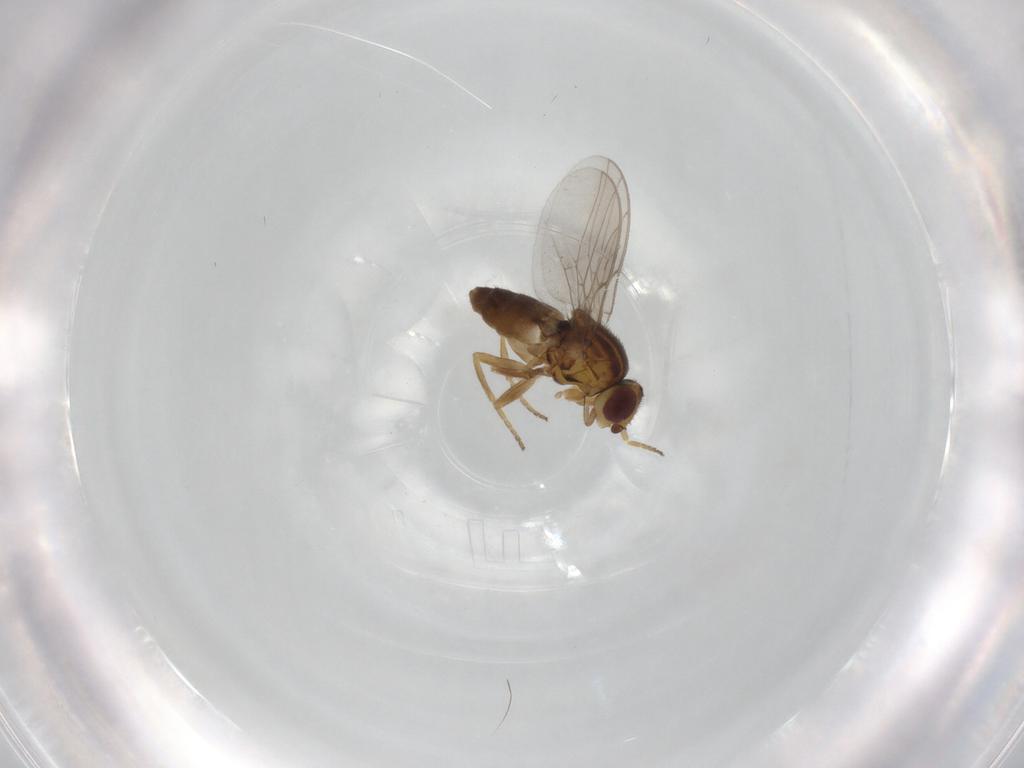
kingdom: Animalia
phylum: Arthropoda
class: Insecta
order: Diptera
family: Chloropidae
